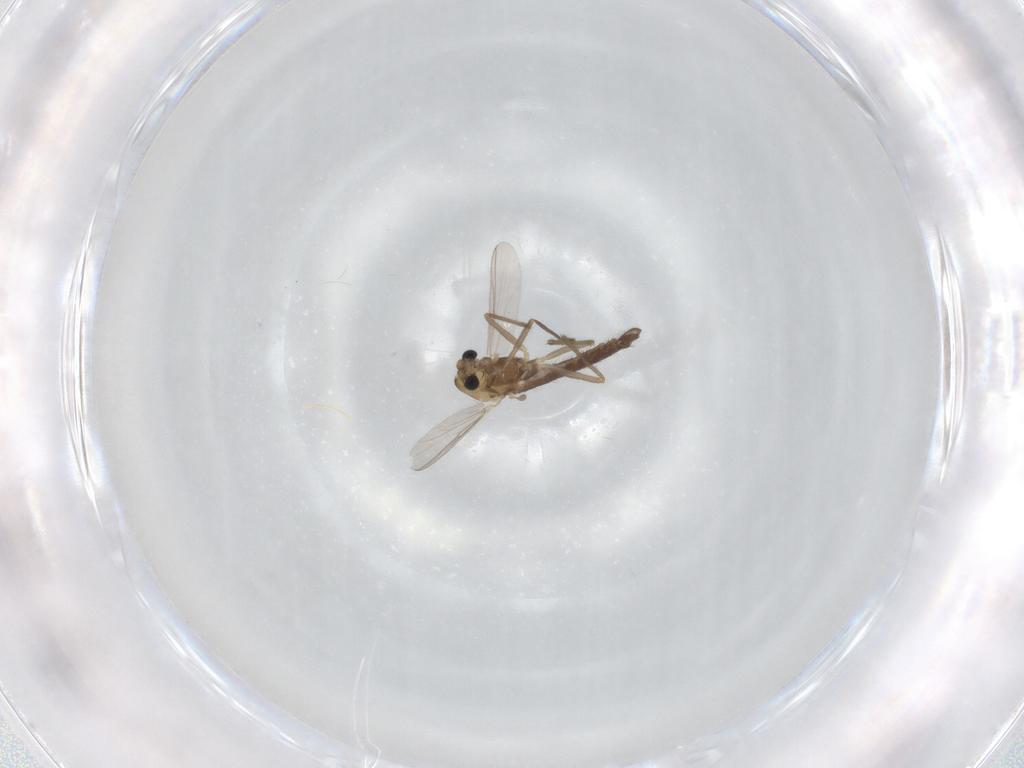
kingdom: Animalia
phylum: Arthropoda
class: Insecta
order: Diptera
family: Chironomidae
